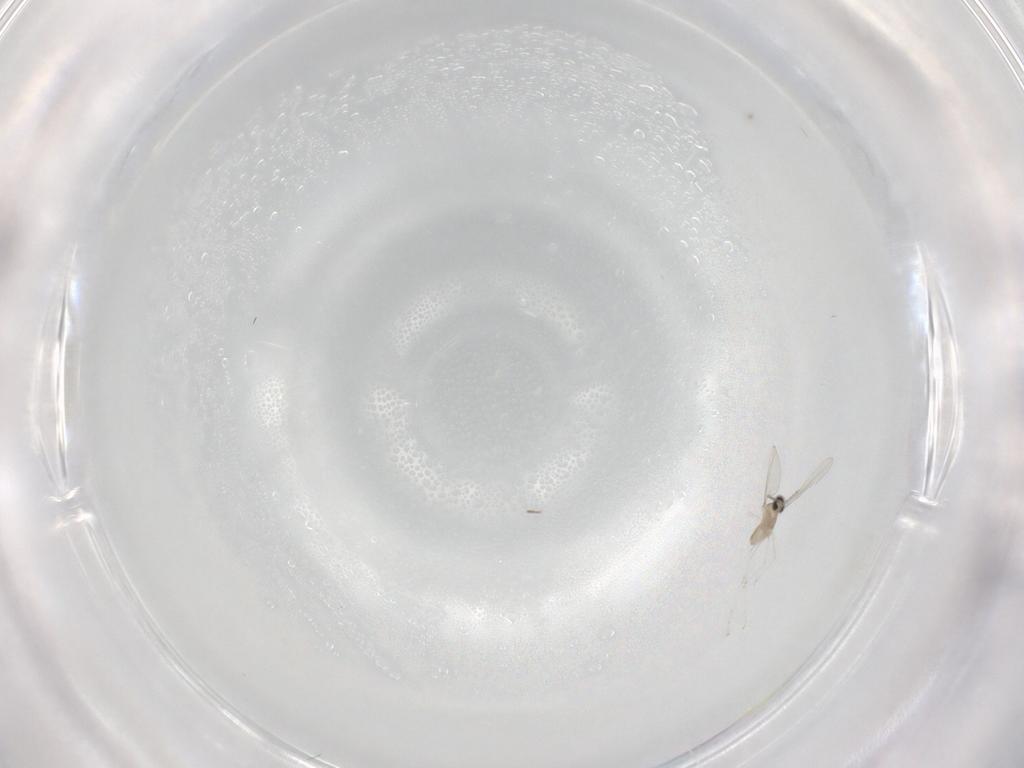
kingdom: Animalia
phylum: Arthropoda
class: Insecta
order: Diptera
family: Cecidomyiidae
